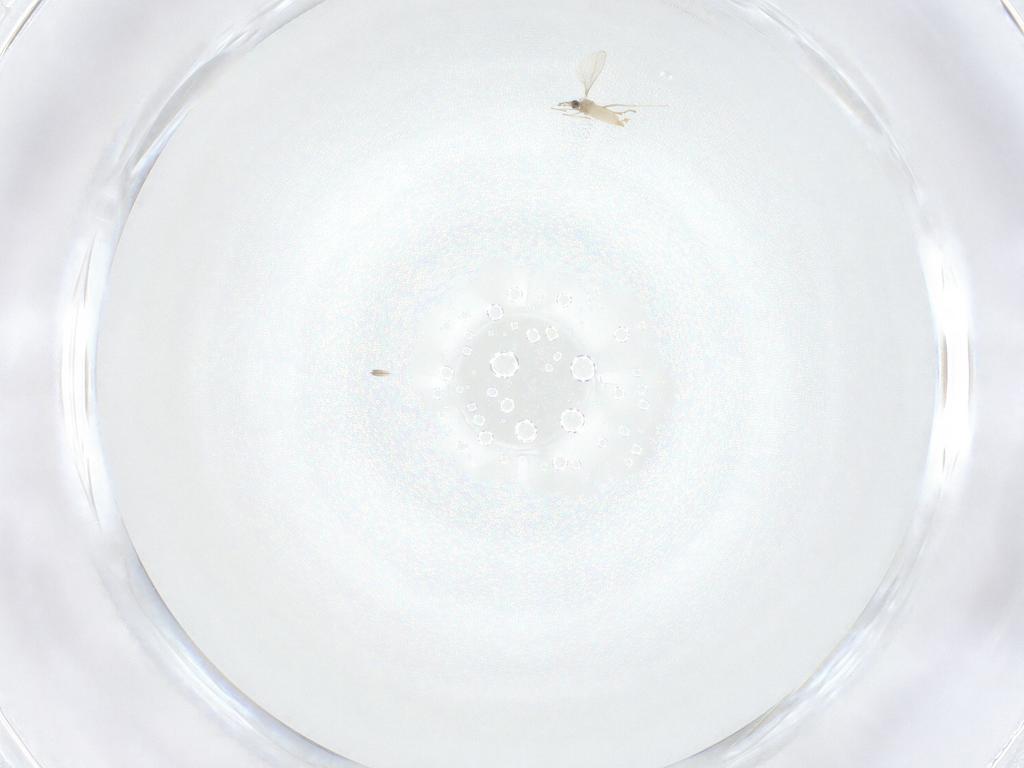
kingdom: Animalia
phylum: Arthropoda
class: Insecta
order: Diptera
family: Cecidomyiidae
